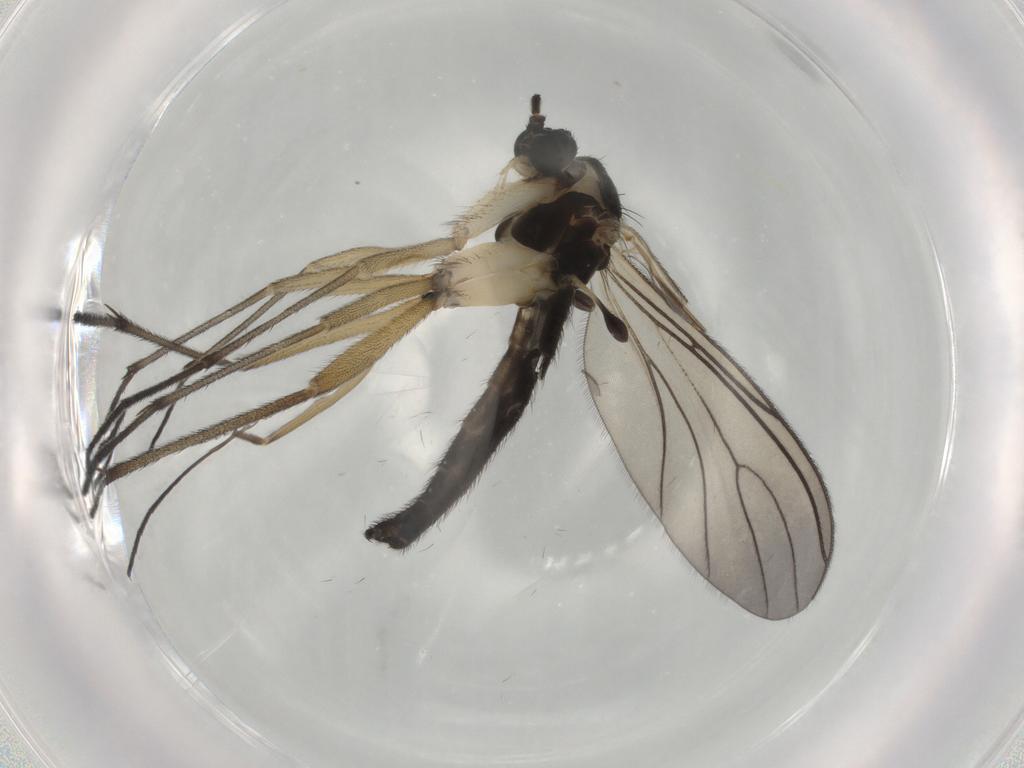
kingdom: Animalia
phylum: Arthropoda
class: Insecta
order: Diptera
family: Sciaridae
